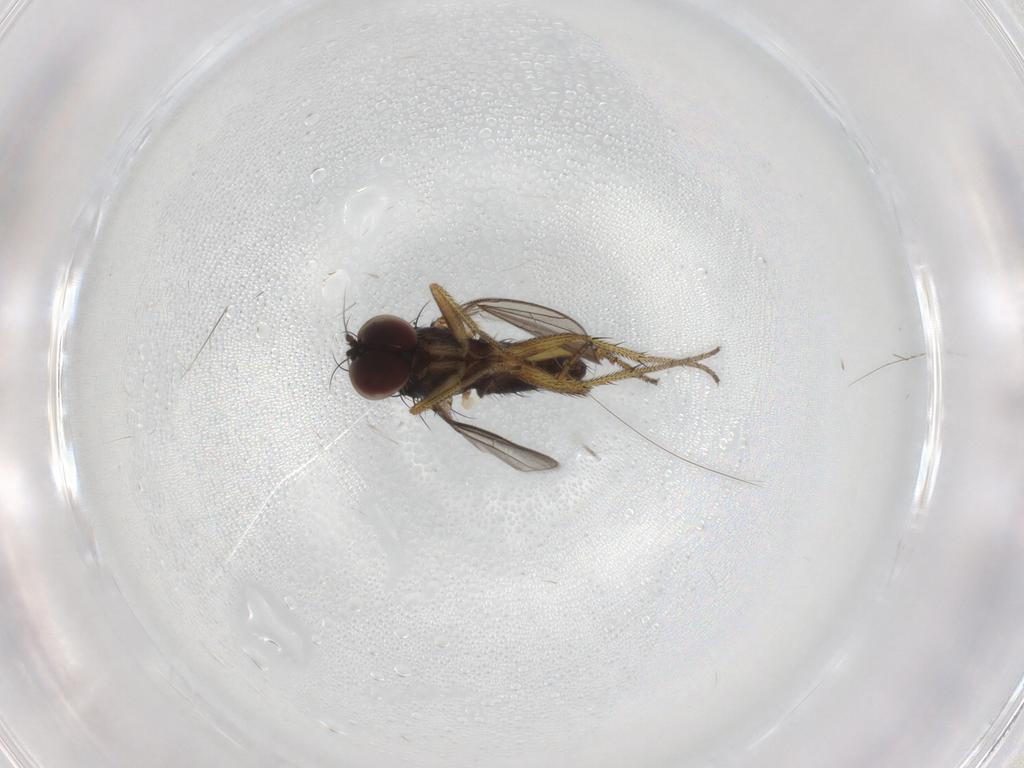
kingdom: Animalia
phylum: Arthropoda
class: Insecta
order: Diptera
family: Dolichopodidae
